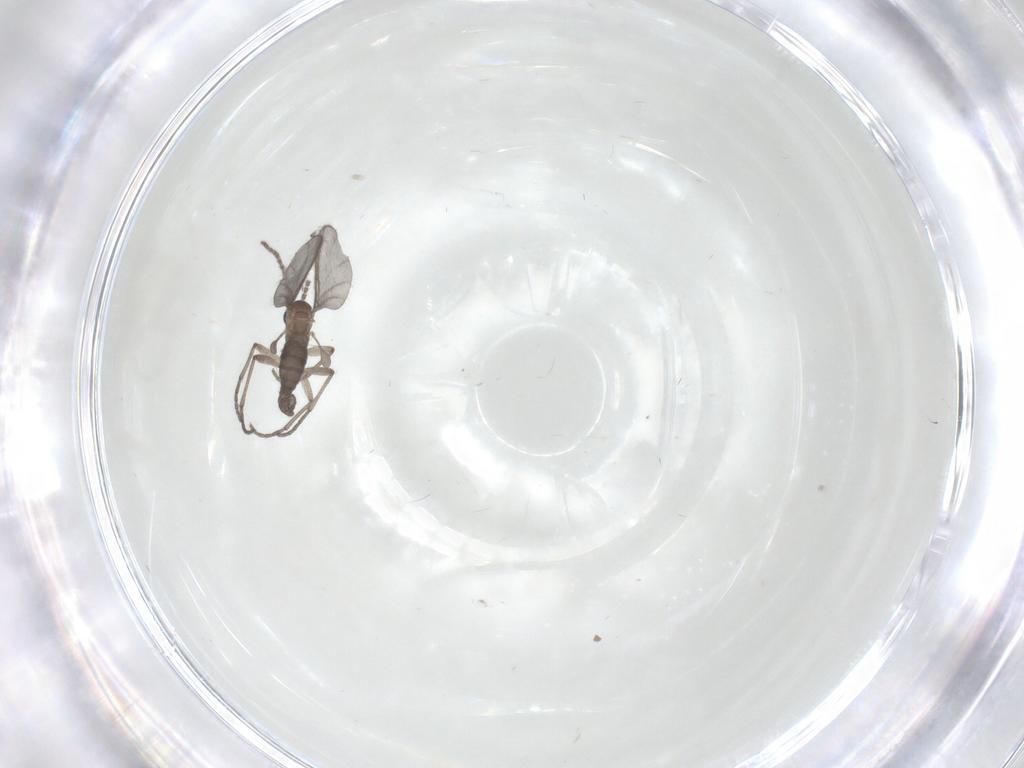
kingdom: Animalia
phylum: Arthropoda
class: Insecta
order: Diptera
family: Sciaridae
